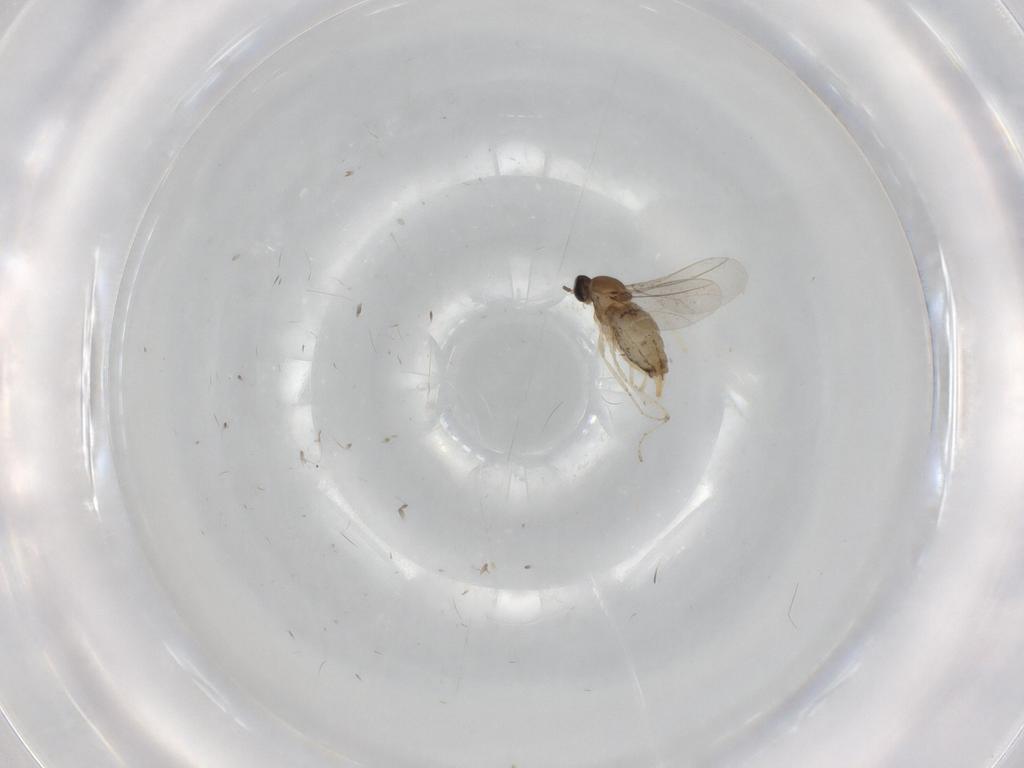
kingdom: Animalia
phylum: Arthropoda
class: Insecta
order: Diptera
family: Cecidomyiidae
